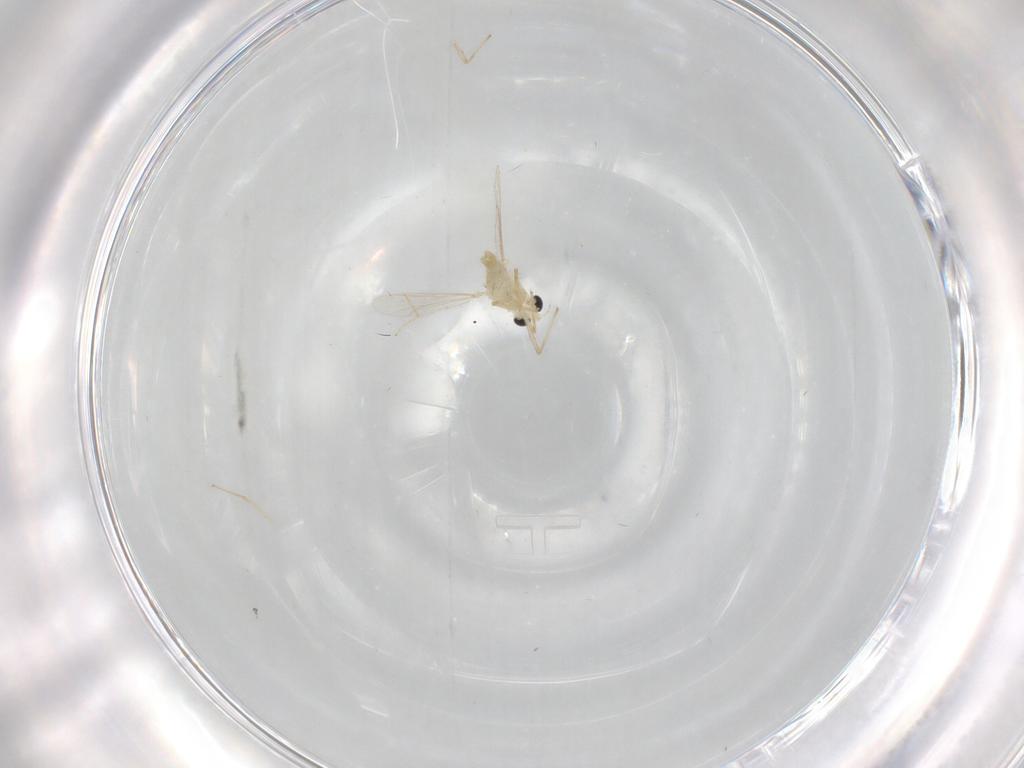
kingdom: Animalia
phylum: Arthropoda
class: Insecta
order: Diptera
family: Chironomidae
